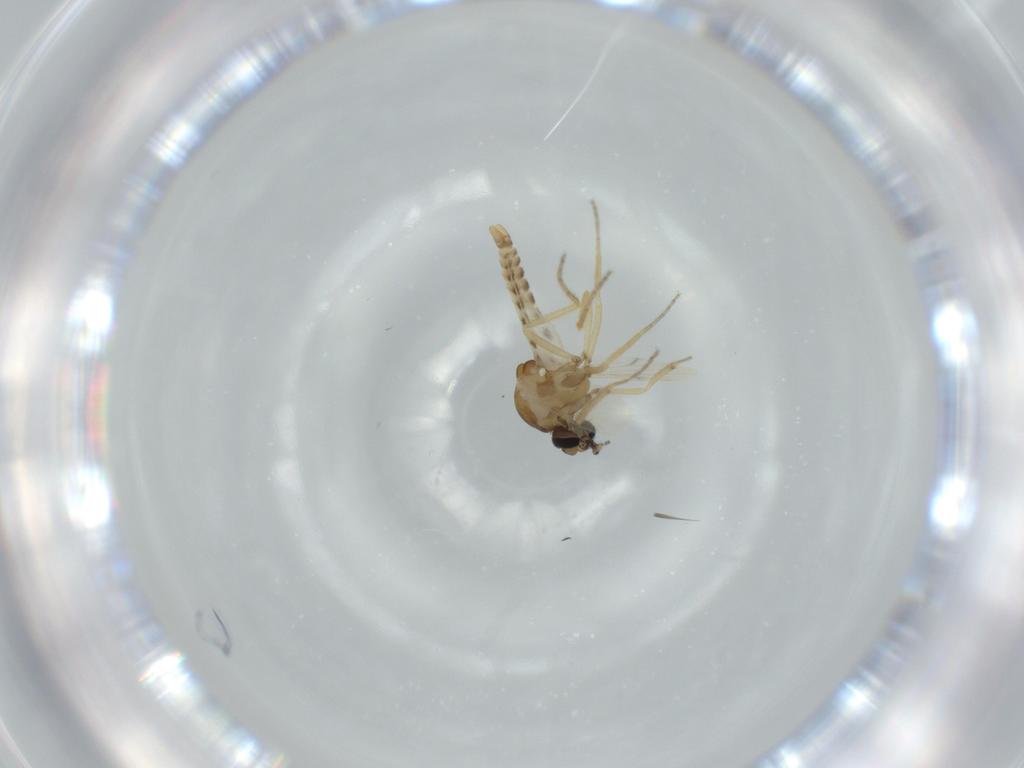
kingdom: Animalia
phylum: Arthropoda
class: Insecta
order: Diptera
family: Ceratopogonidae
